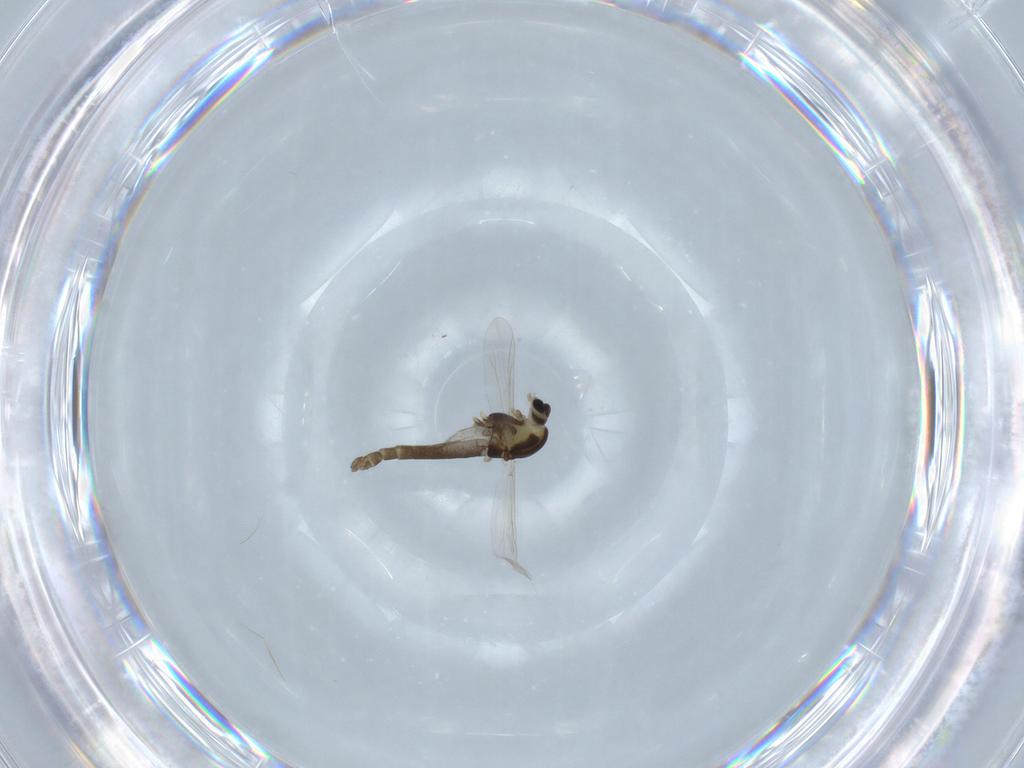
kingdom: Animalia
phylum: Arthropoda
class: Insecta
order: Diptera
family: Chironomidae
